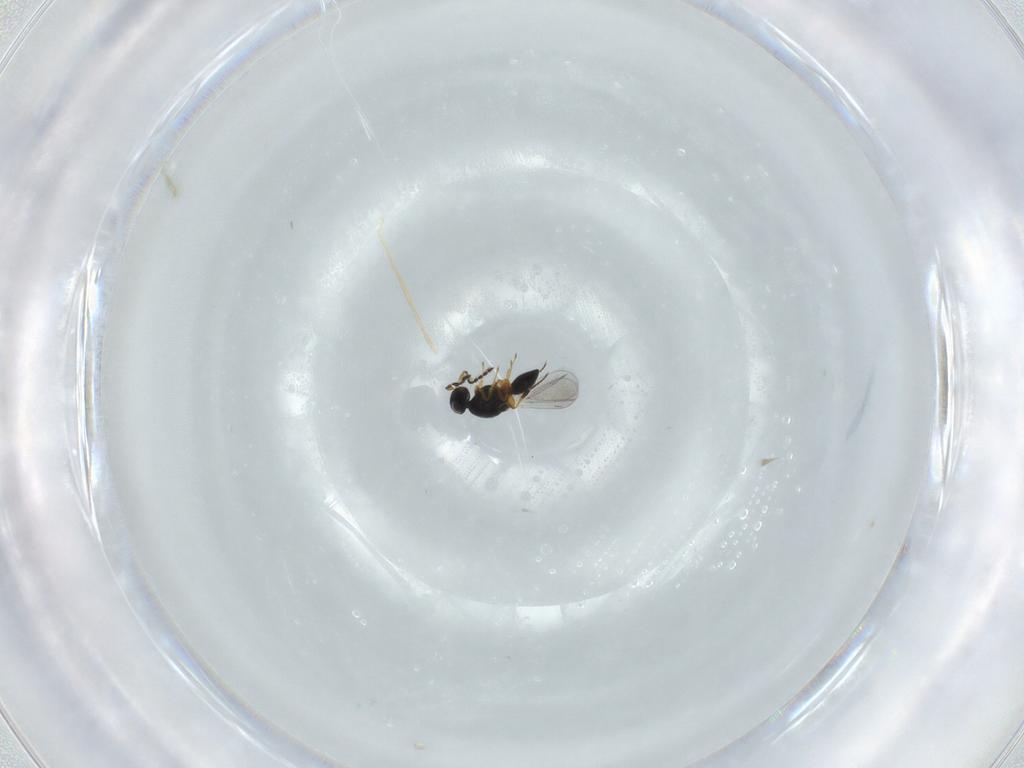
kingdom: Animalia
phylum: Arthropoda
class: Insecta
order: Hymenoptera
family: Platygastridae
